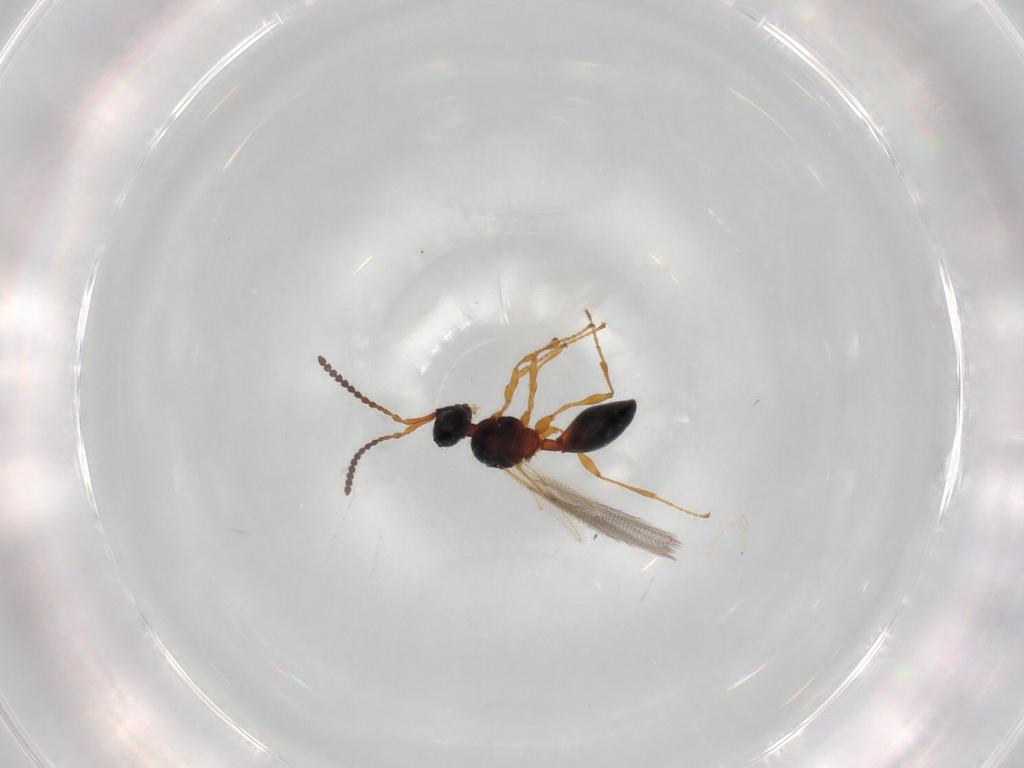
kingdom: Animalia
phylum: Arthropoda
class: Insecta
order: Hymenoptera
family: Diapriidae
